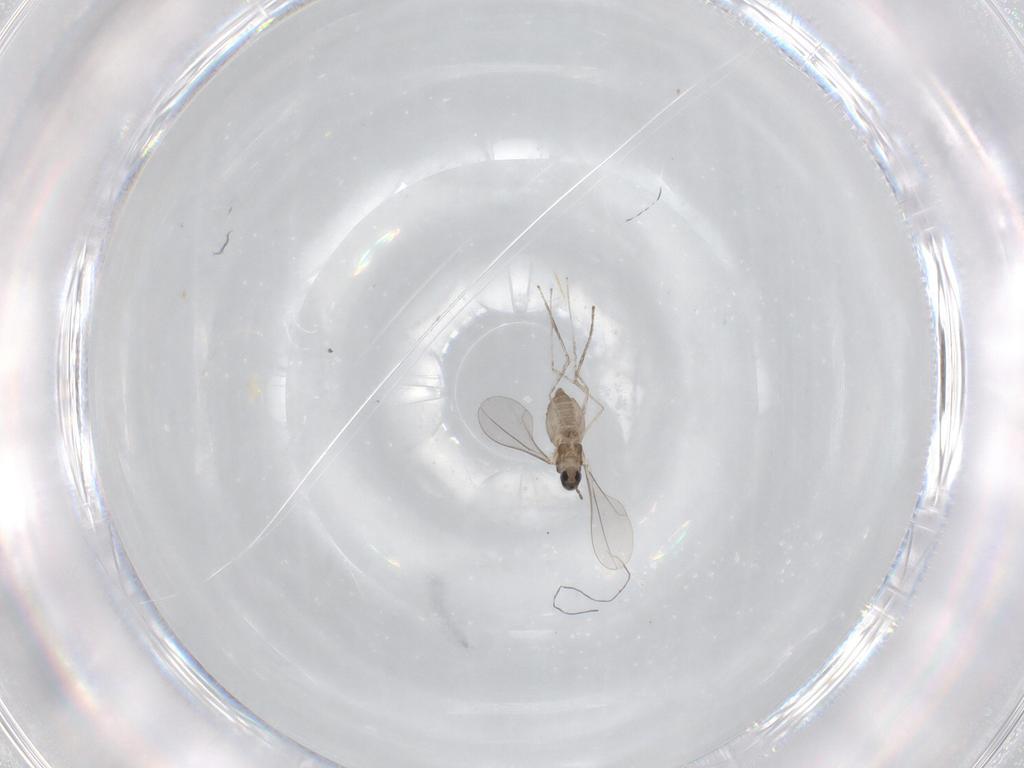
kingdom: Animalia
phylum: Arthropoda
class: Insecta
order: Diptera
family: Cecidomyiidae
